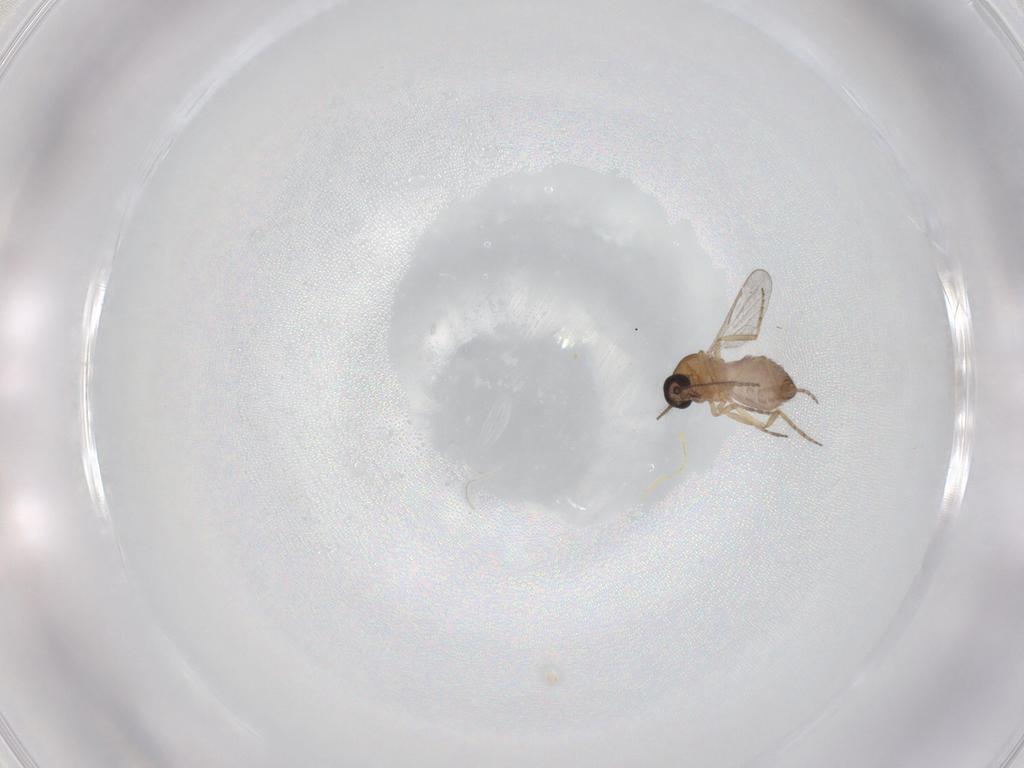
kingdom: Animalia
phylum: Arthropoda
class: Insecta
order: Diptera
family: Ceratopogonidae
